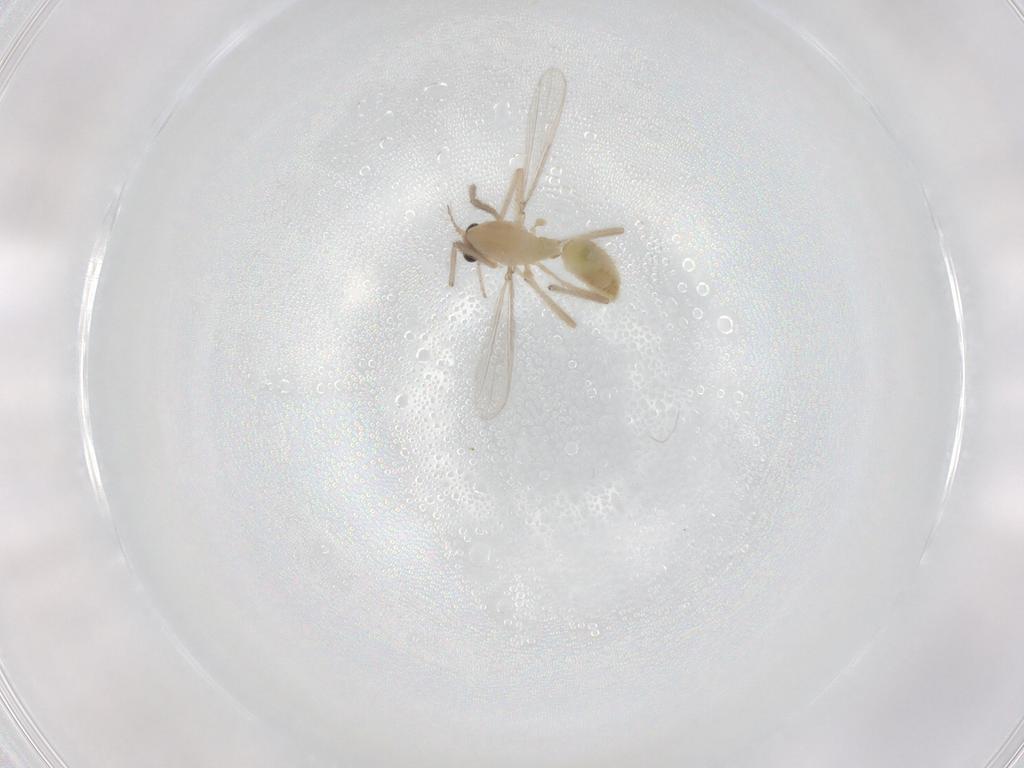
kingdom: Animalia
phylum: Arthropoda
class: Insecta
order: Diptera
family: Chironomidae
